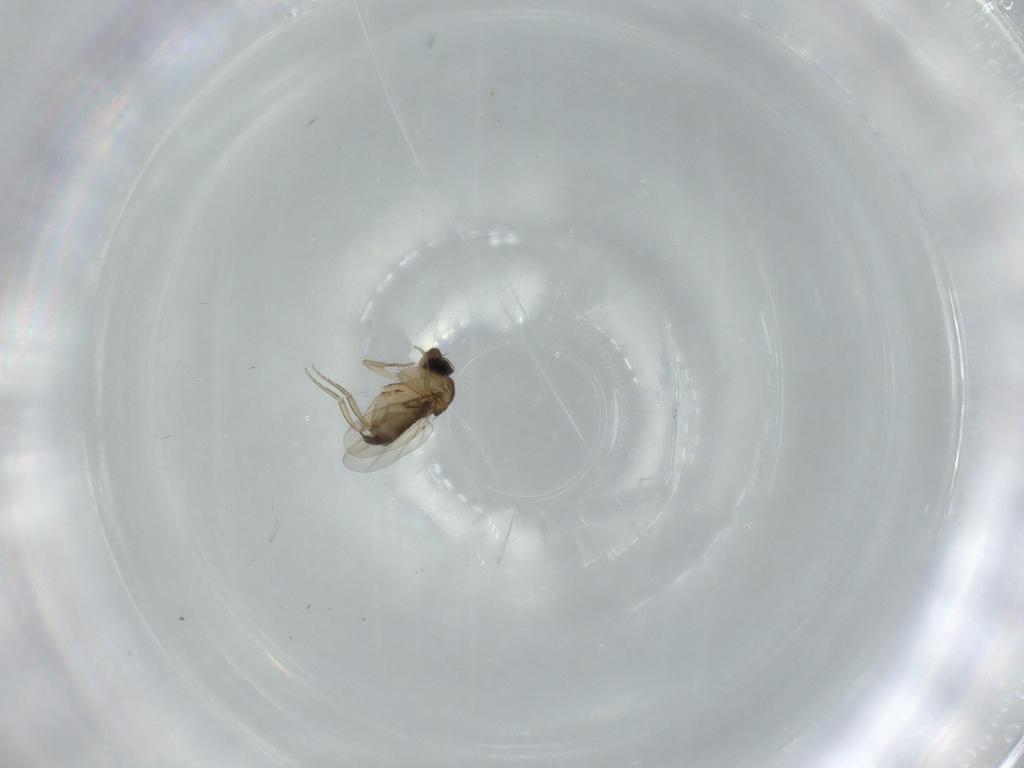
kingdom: Animalia
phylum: Arthropoda
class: Insecta
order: Diptera
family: Phoridae
